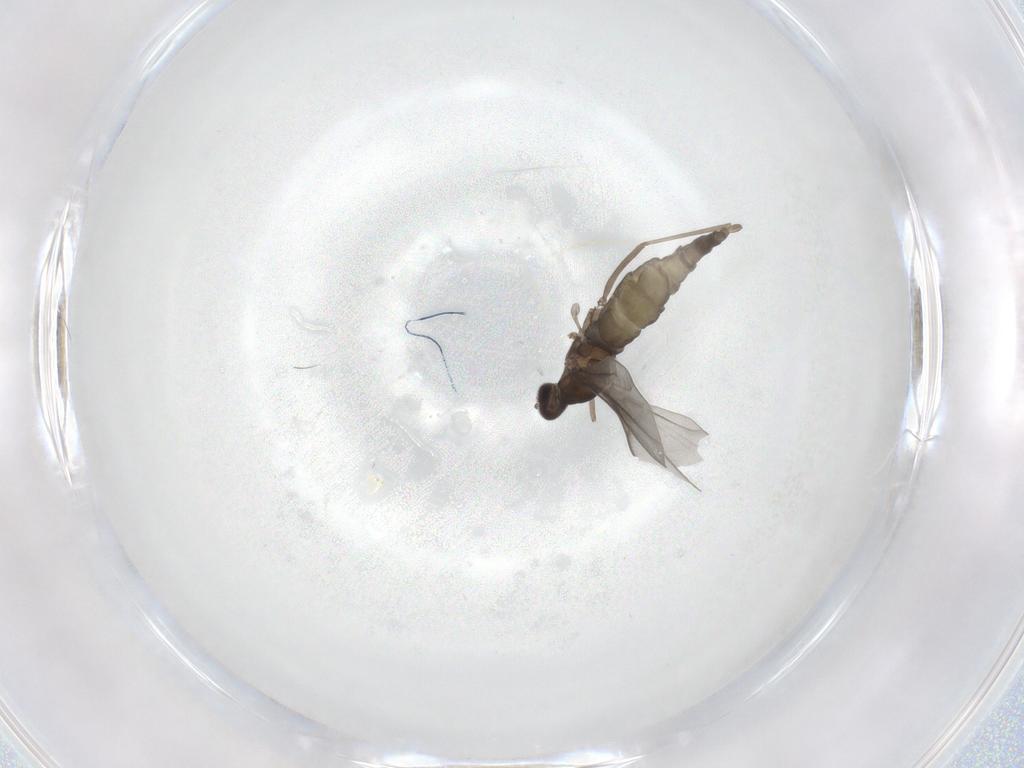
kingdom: Animalia
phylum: Arthropoda
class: Insecta
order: Diptera
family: Cecidomyiidae
